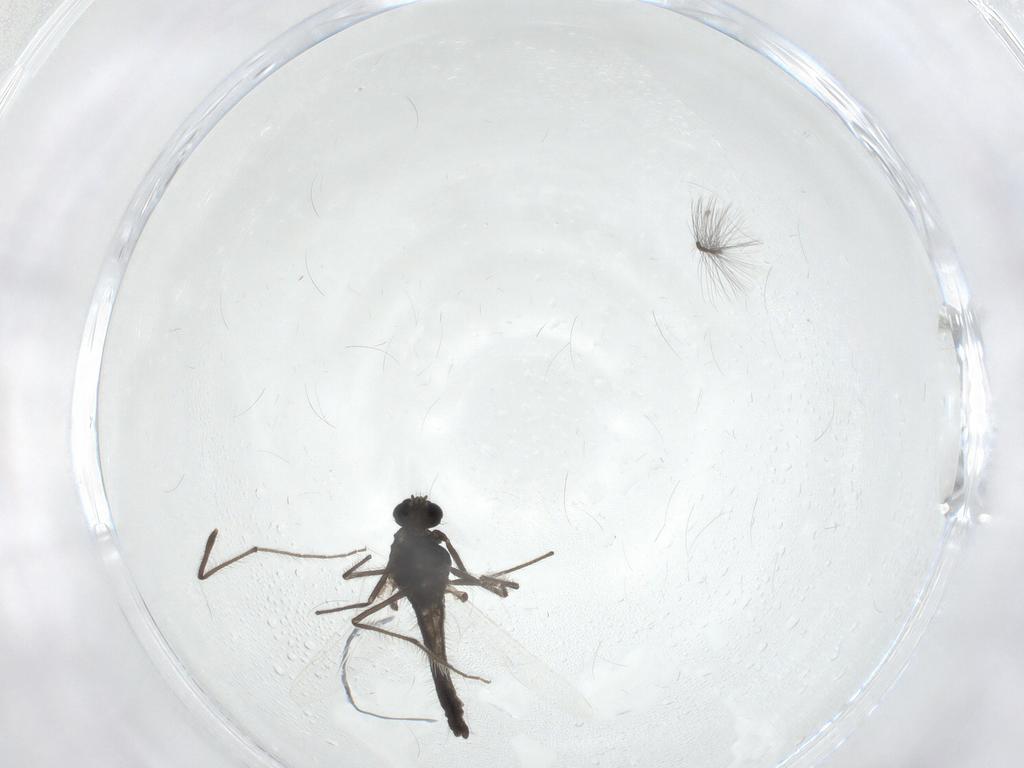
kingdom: Animalia
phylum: Arthropoda
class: Insecta
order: Diptera
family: Chironomidae
